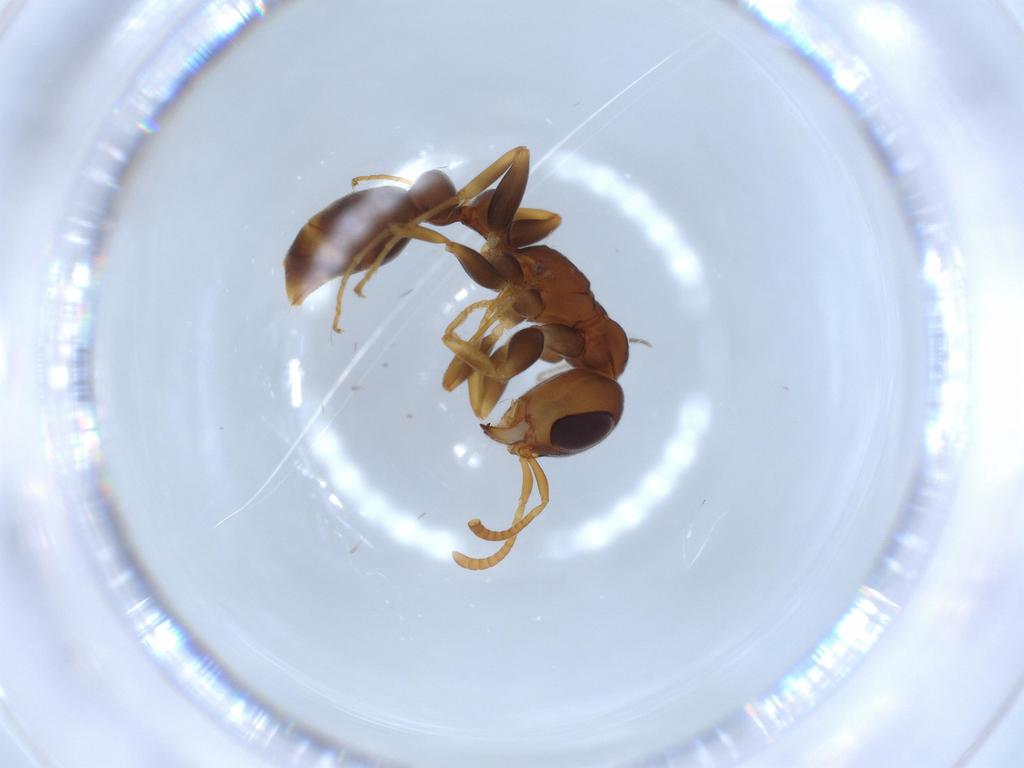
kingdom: Animalia
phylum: Arthropoda
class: Insecta
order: Hymenoptera
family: Formicidae
